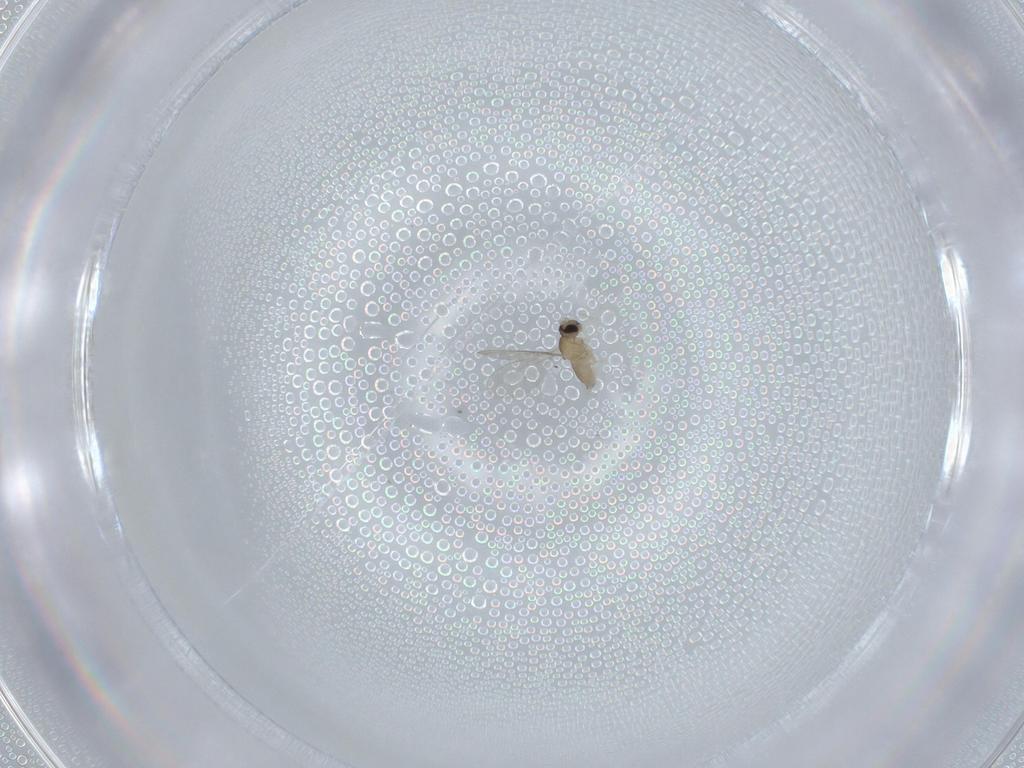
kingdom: Animalia
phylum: Arthropoda
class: Insecta
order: Diptera
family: Cecidomyiidae
